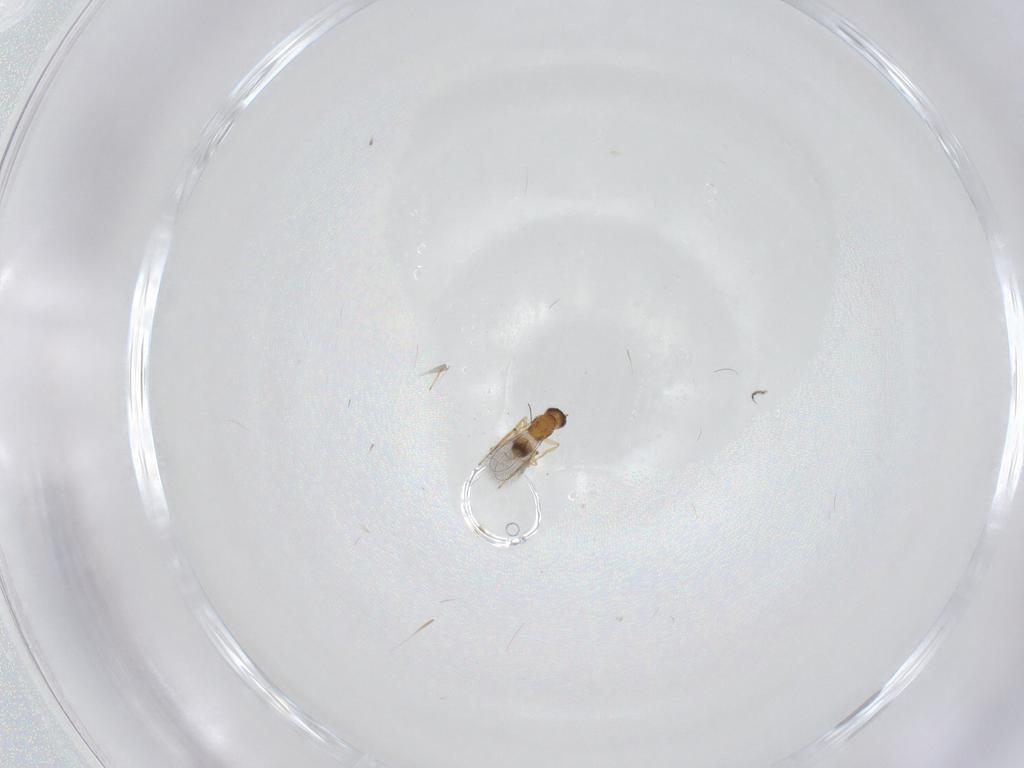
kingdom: Animalia
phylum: Arthropoda
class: Insecta
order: Hymenoptera
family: Mymaridae
